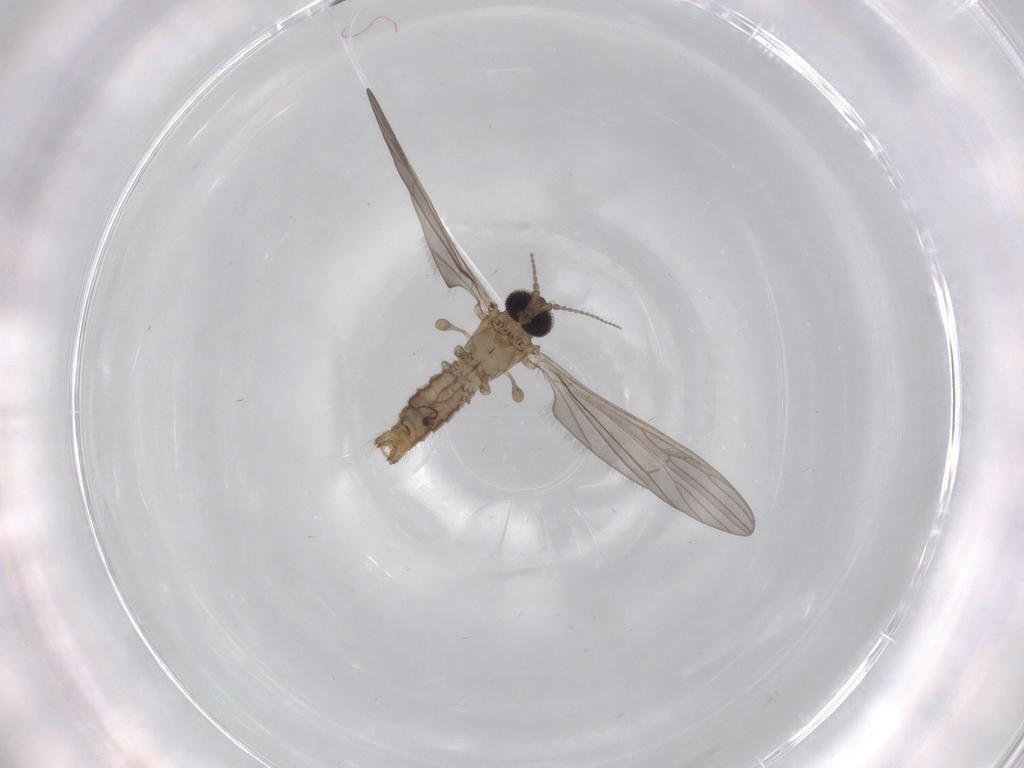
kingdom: Animalia
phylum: Arthropoda
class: Insecta
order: Diptera
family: Limoniidae
